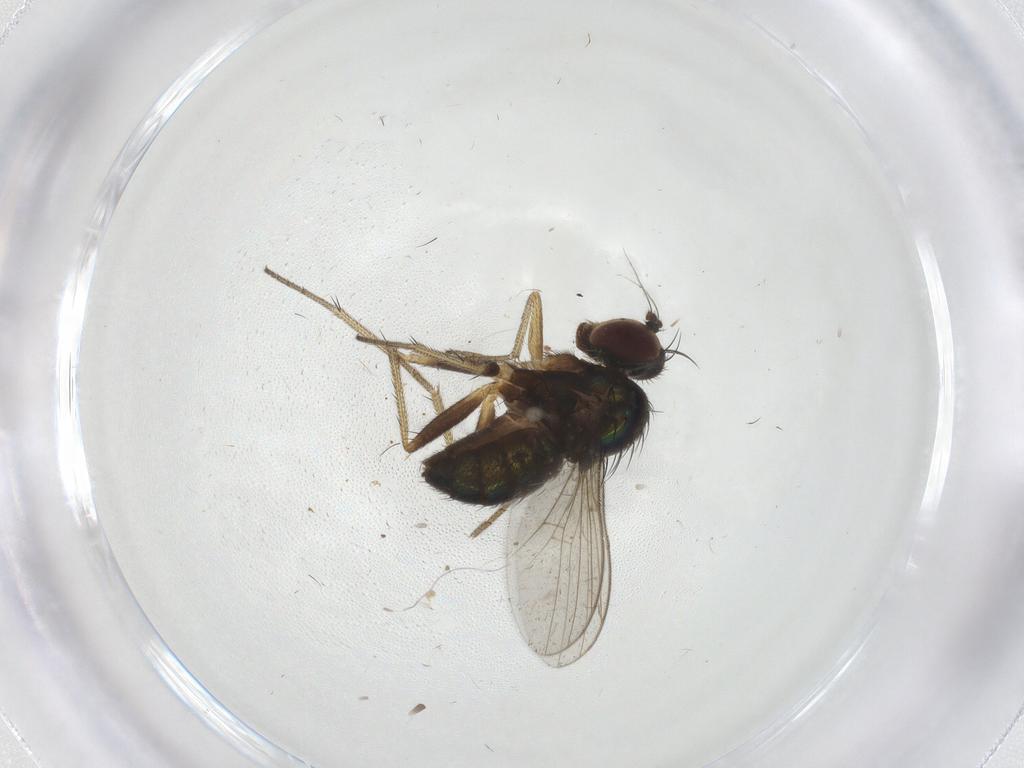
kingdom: Animalia
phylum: Arthropoda
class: Insecta
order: Diptera
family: Dolichopodidae
